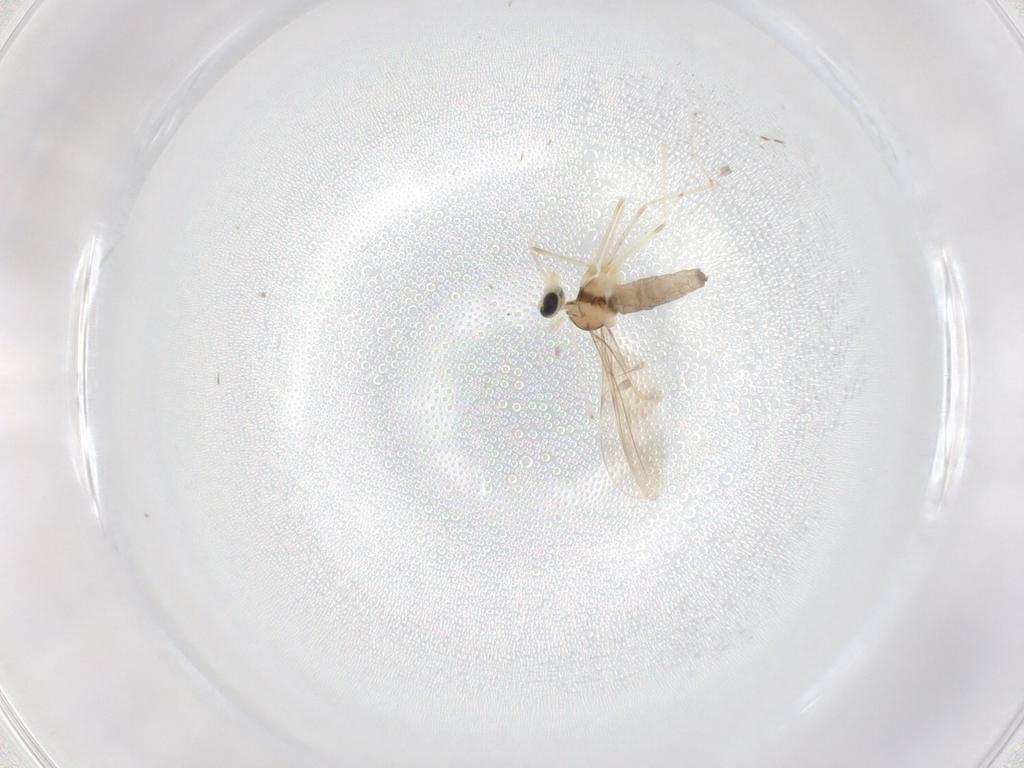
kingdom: Animalia
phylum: Arthropoda
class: Insecta
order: Diptera
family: Cecidomyiidae
